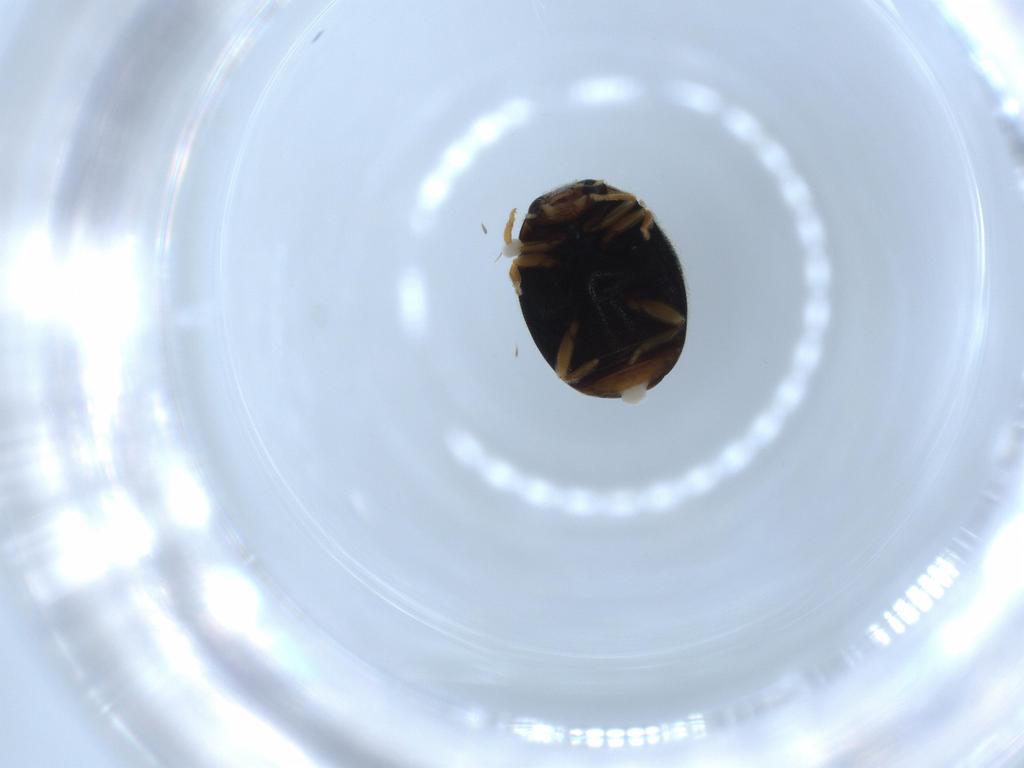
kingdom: Animalia
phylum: Arthropoda
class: Insecta
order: Coleoptera
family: Coccinellidae
